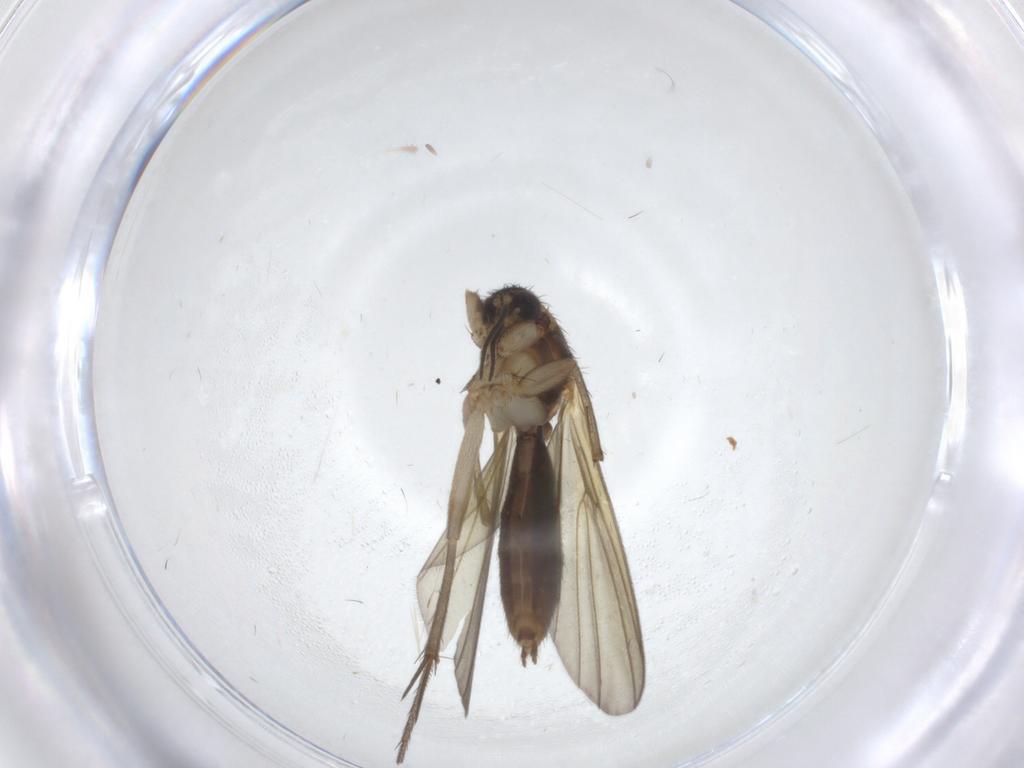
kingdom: Animalia
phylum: Arthropoda
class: Insecta
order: Diptera
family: Mycetophilidae
